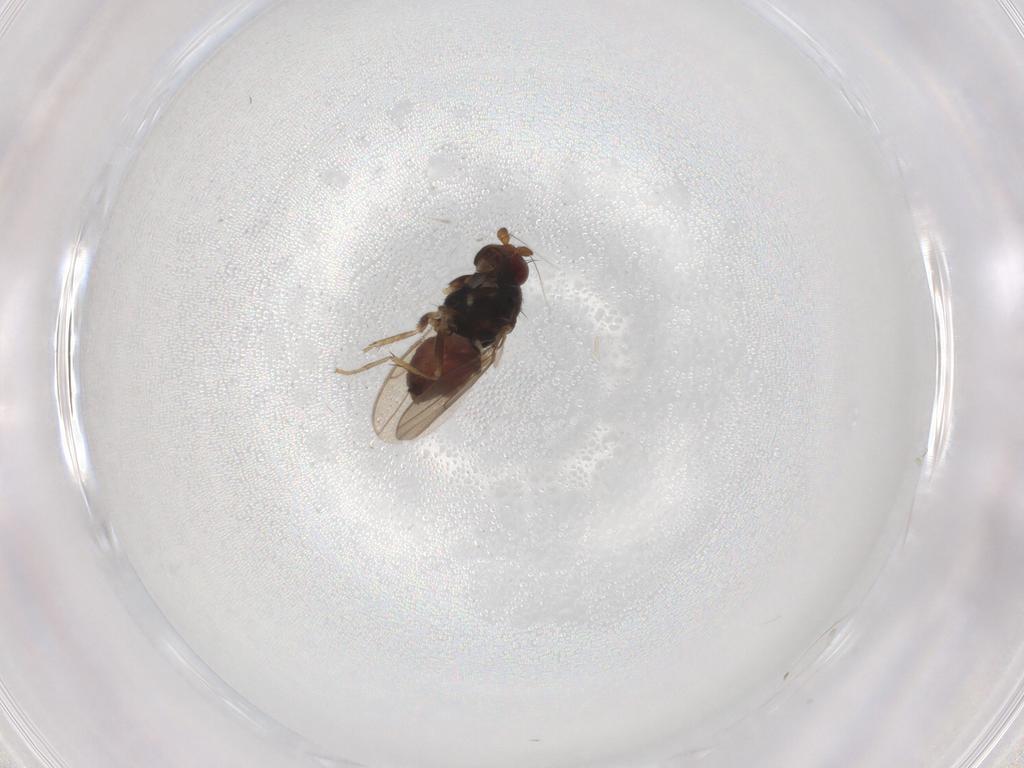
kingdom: Animalia
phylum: Arthropoda
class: Insecta
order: Diptera
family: Sphaeroceridae
